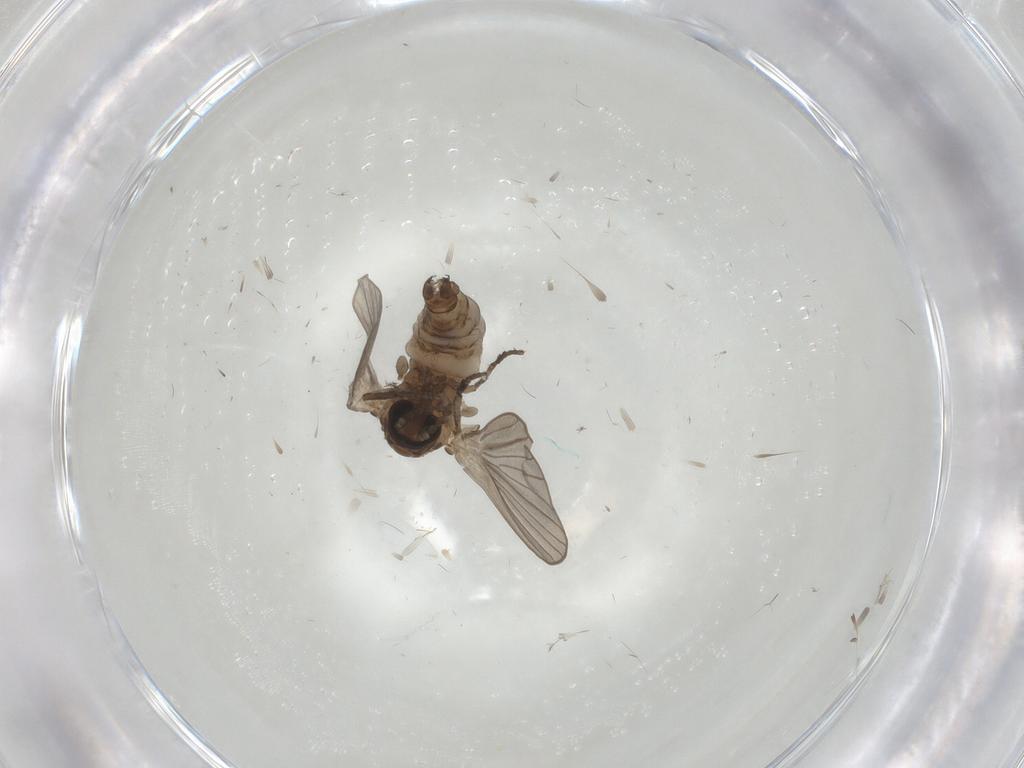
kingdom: Animalia
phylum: Arthropoda
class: Insecta
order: Diptera
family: Psychodidae
